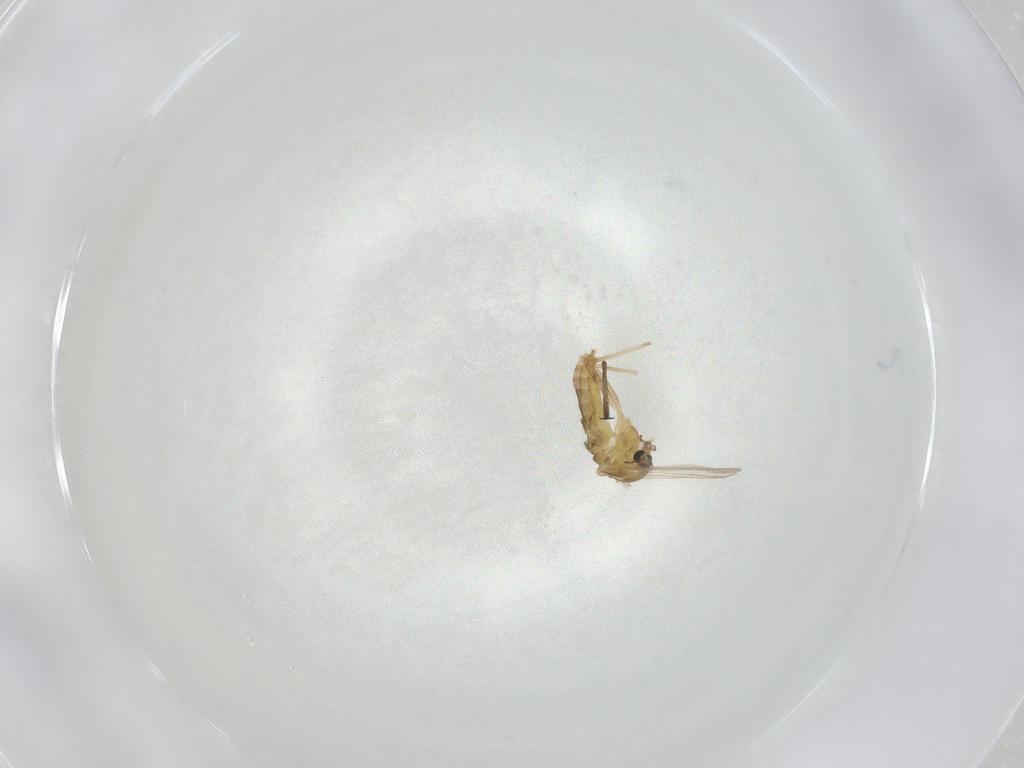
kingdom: Animalia
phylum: Arthropoda
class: Insecta
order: Diptera
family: Chironomidae
